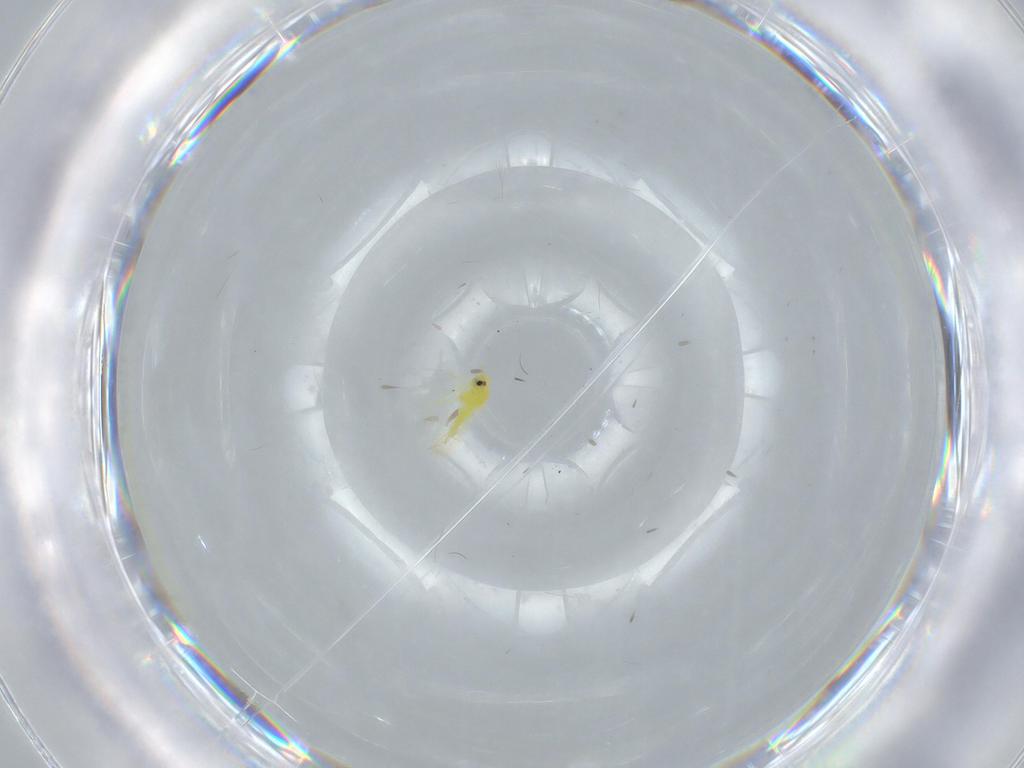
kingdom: Animalia
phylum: Arthropoda
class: Insecta
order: Hemiptera
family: Aleyrodidae
